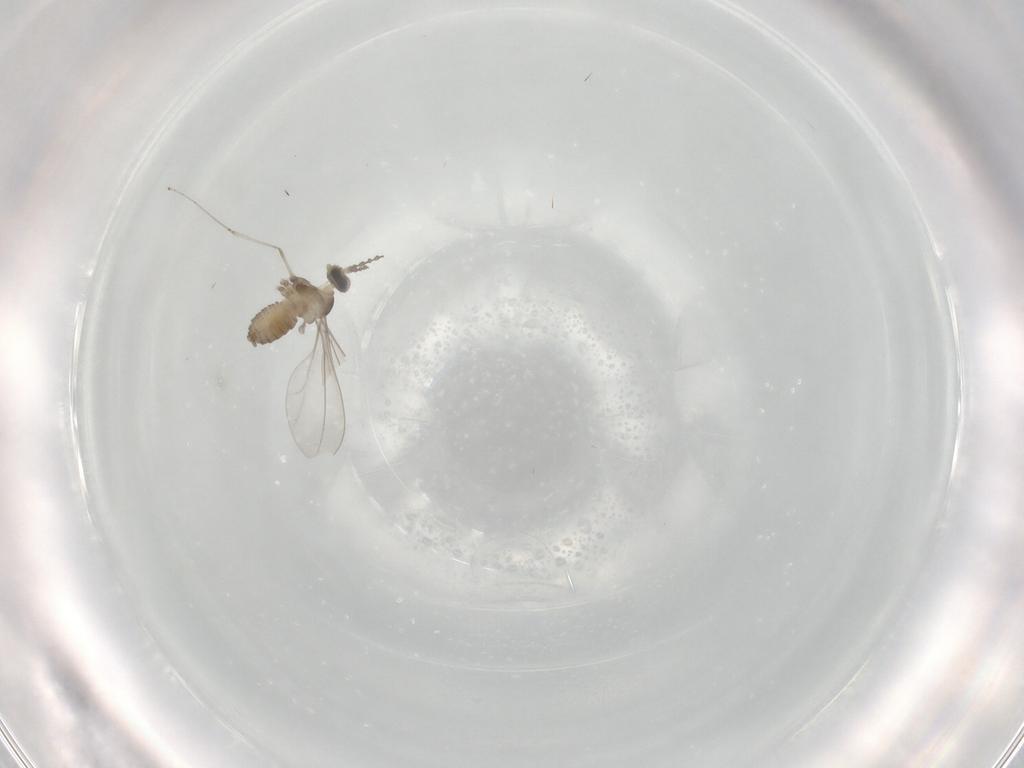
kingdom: Animalia
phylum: Arthropoda
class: Insecta
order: Diptera
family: Cecidomyiidae
